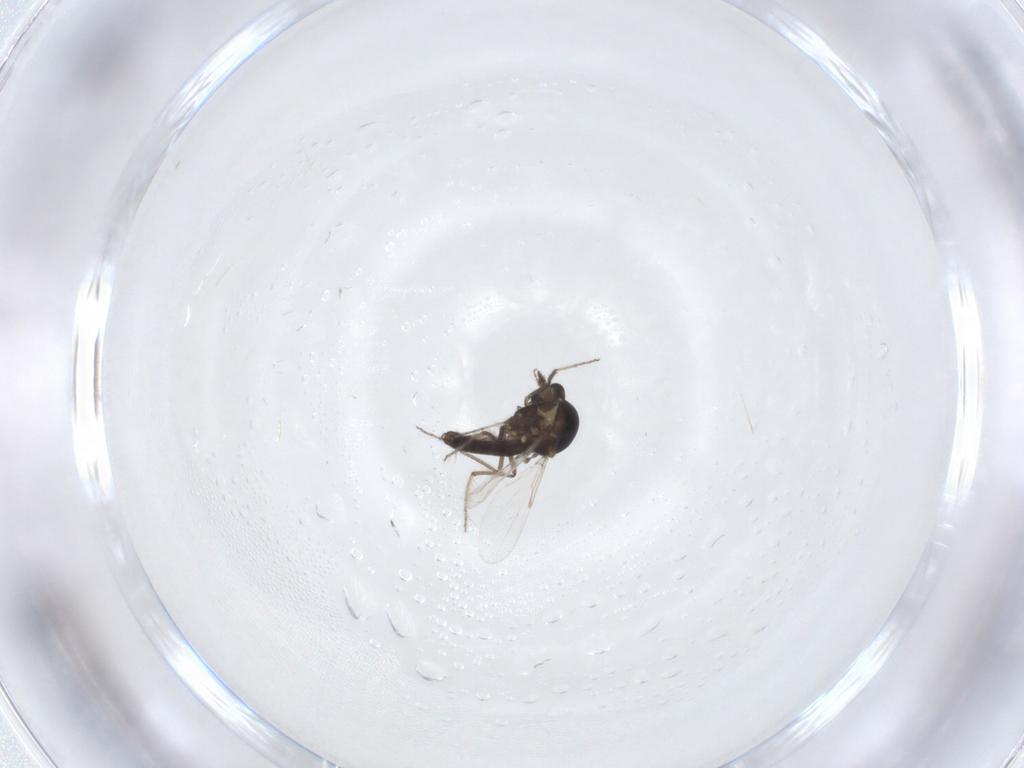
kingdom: Animalia
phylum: Arthropoda
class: Insecta
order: Diptera
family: Ceratopogonidae
